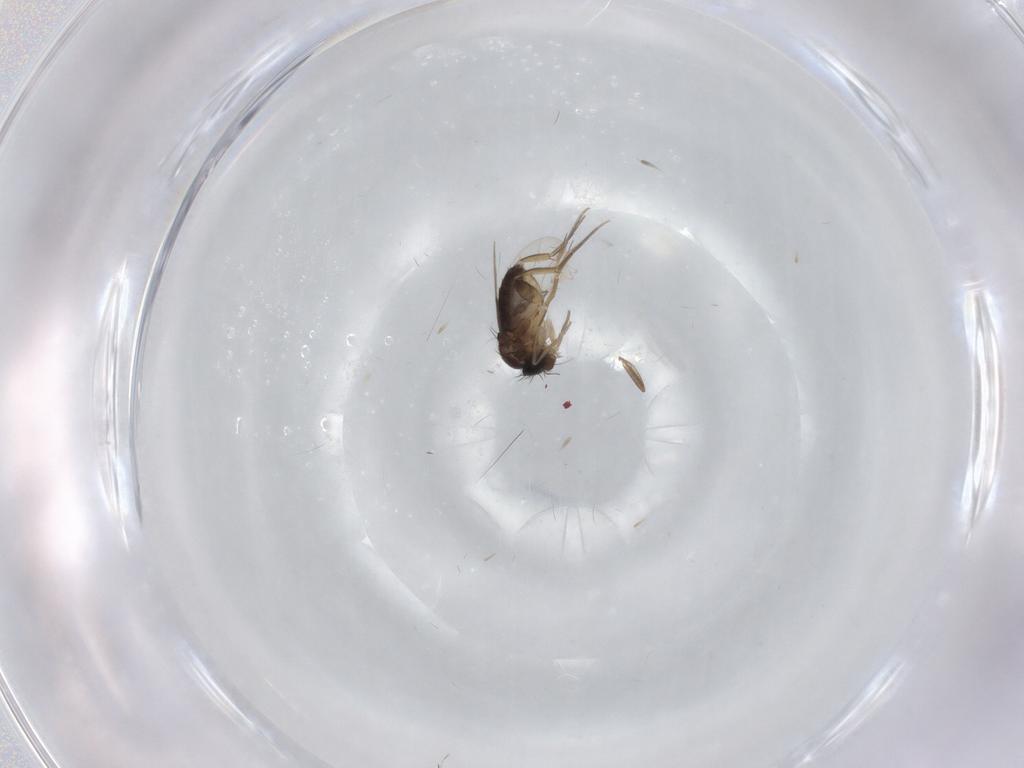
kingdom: Animalia
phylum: Arthropoda
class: Insecta
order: Diptera
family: Phoridae
